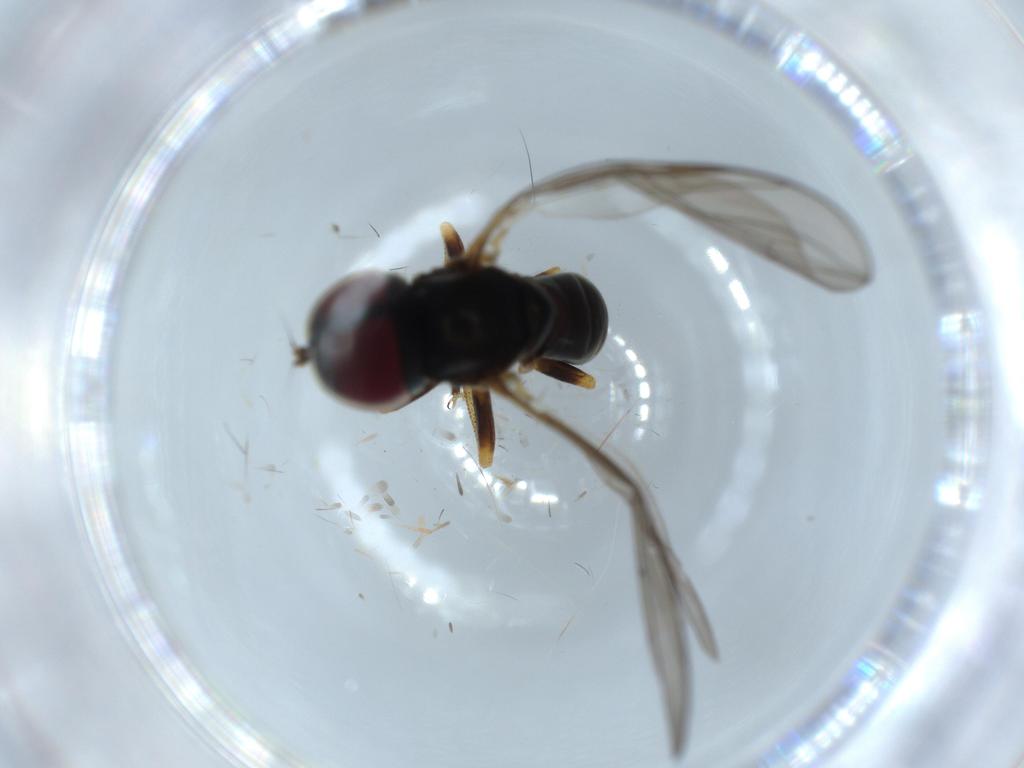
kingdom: Animalia
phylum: Arthropoda
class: Insecta
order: Diptera
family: Pipunculidae
